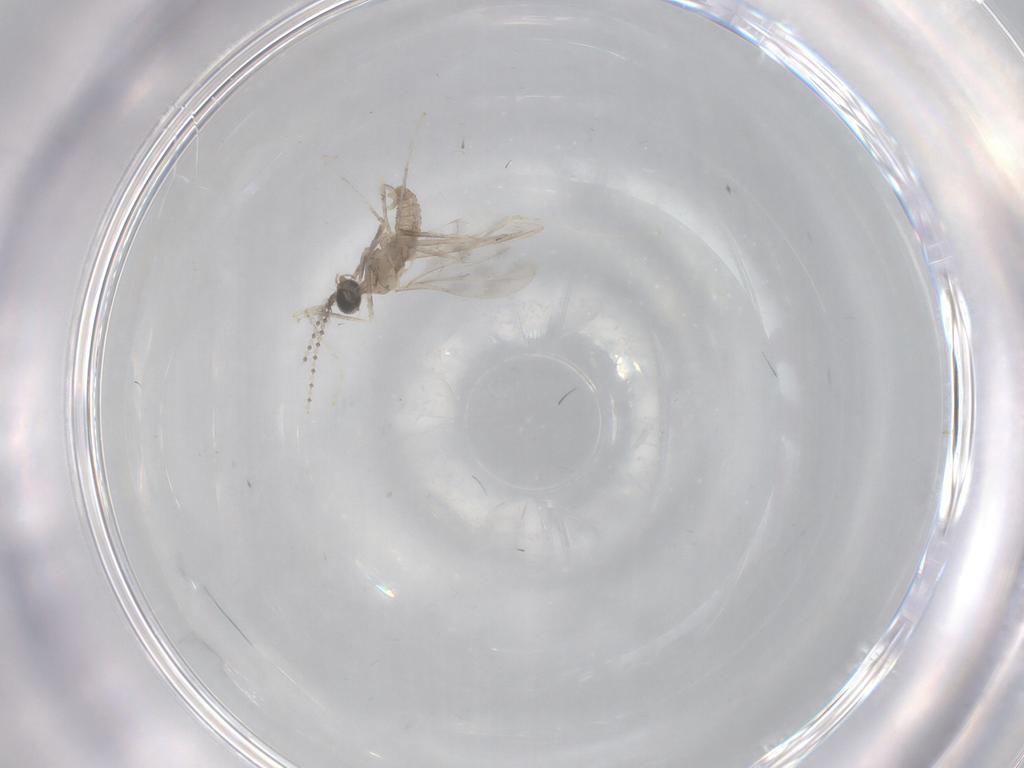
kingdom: Animalia
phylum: Arthropoda
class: Insecta
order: Diptera
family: Cecidomyiidae
